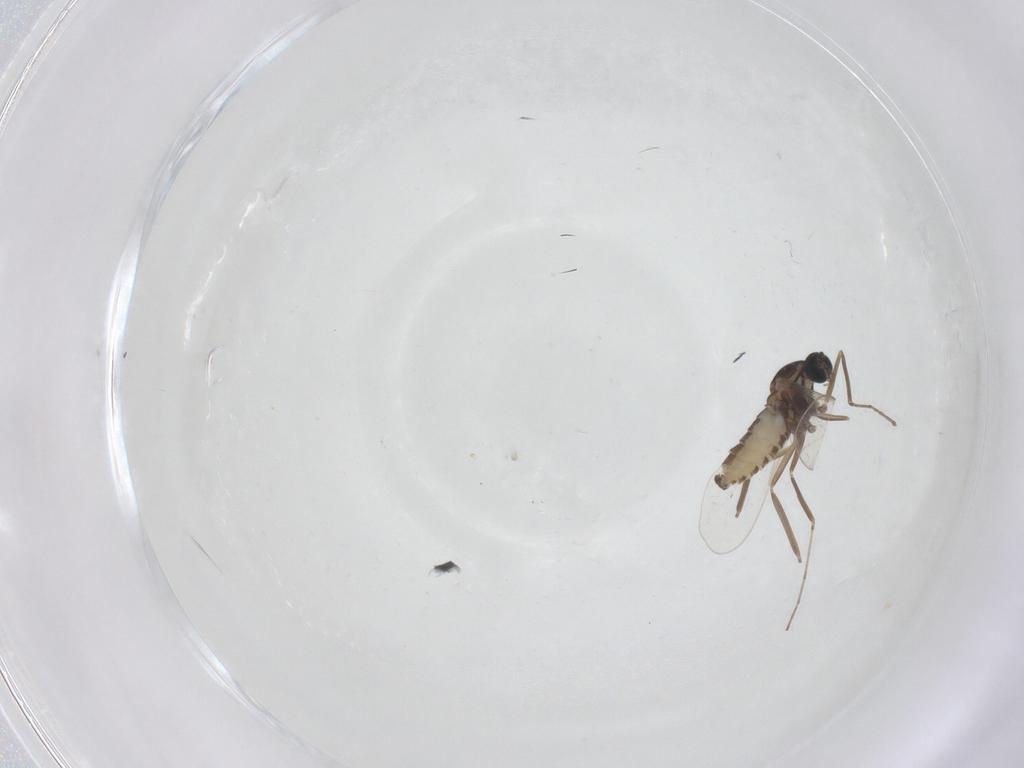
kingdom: Animalia
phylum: Arthropoda
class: Insecta
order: Diptera
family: Cecidomyiidae
